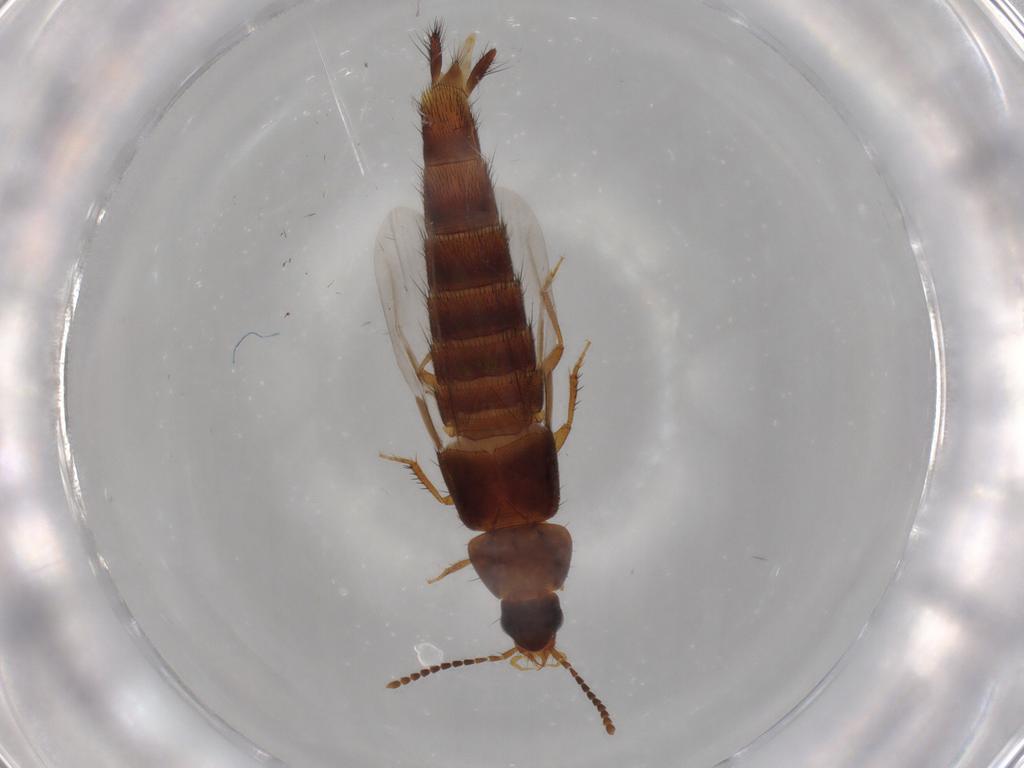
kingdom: Animalia
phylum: Arthropoda
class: Insecta
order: Coleoptera
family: Staphylinidae
